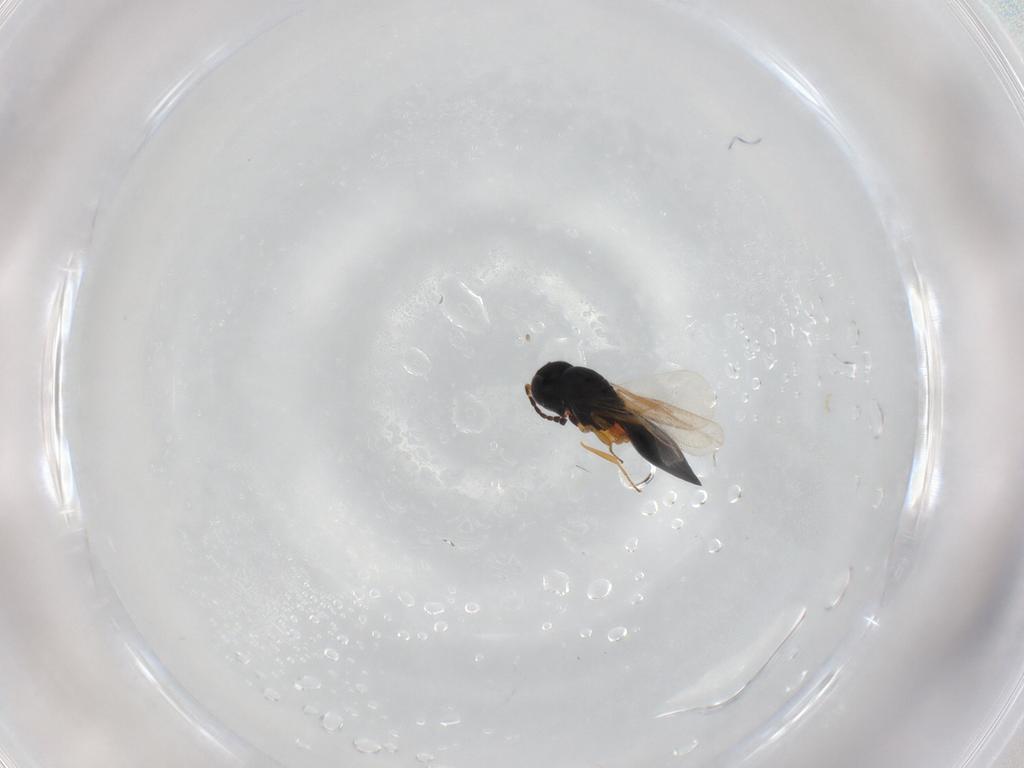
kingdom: Animalia
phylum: Arthropoda
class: Insecta
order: Hymenoptera
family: Scelionidae
